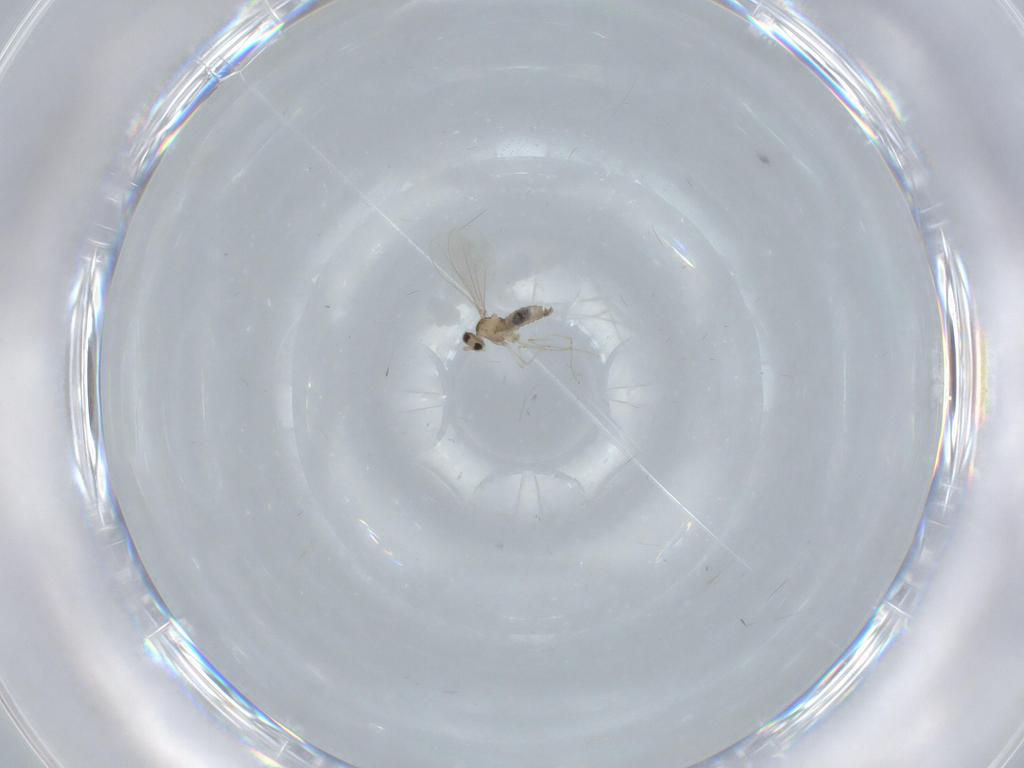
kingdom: Animalia
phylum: Arthropoda
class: Insecta
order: Diptera
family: Cecidomyiidae
